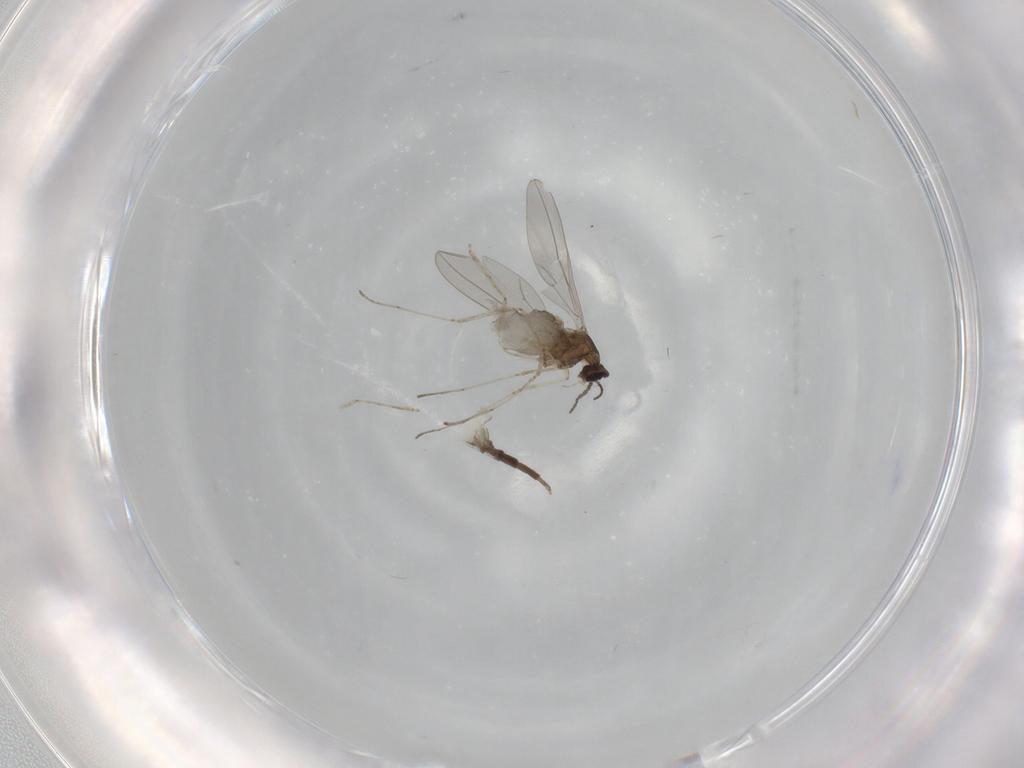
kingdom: Animalia
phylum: Arthropoda
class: Insecta
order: Diptera
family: Cecidomyiidae
